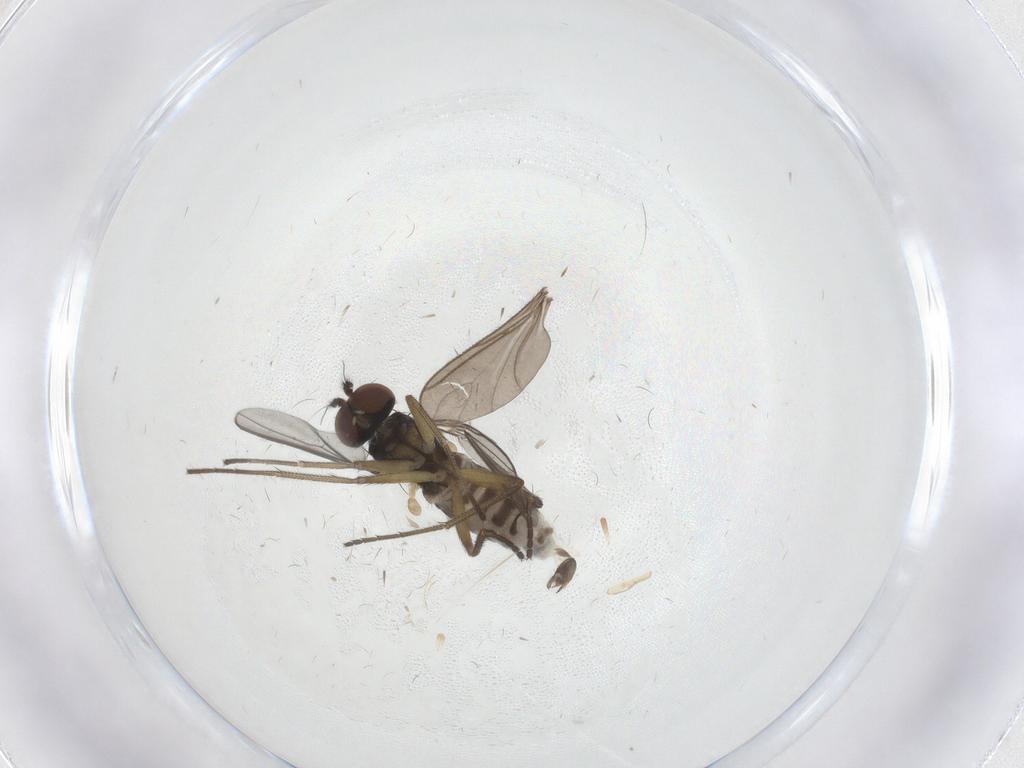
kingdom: Animalia
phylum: Arthropoda
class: Insecta
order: Diptera
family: Dolichopodidae
